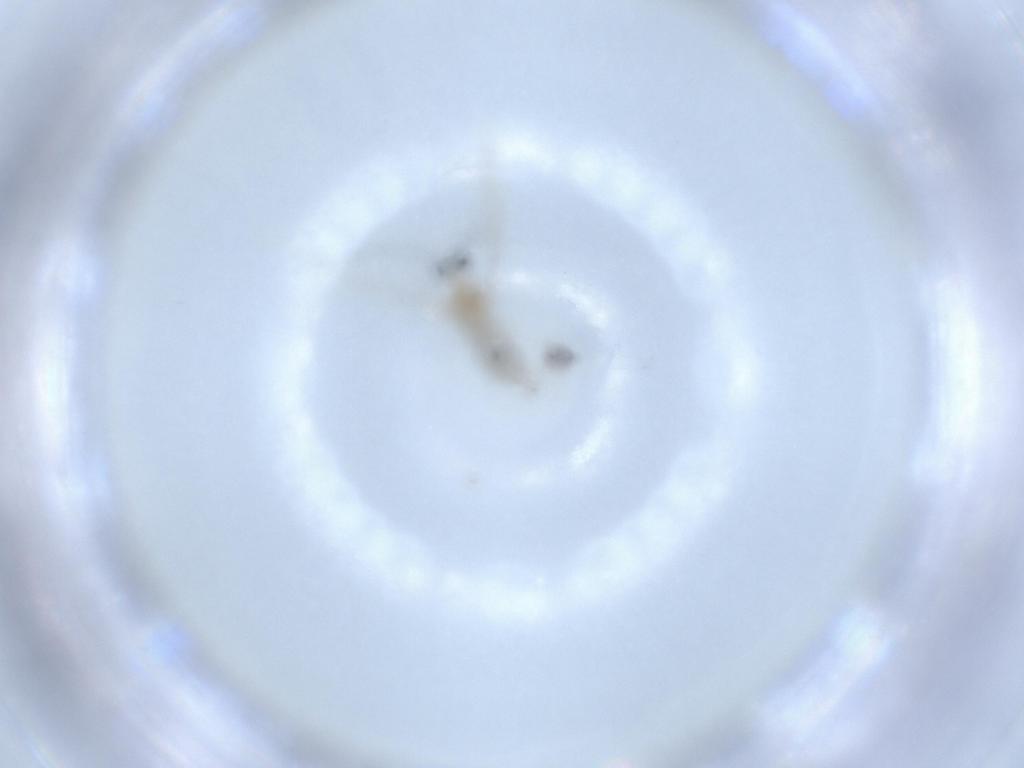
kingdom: Animalia
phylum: Arthropoda
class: Insecta
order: Diptera
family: Cecidomyiidae
